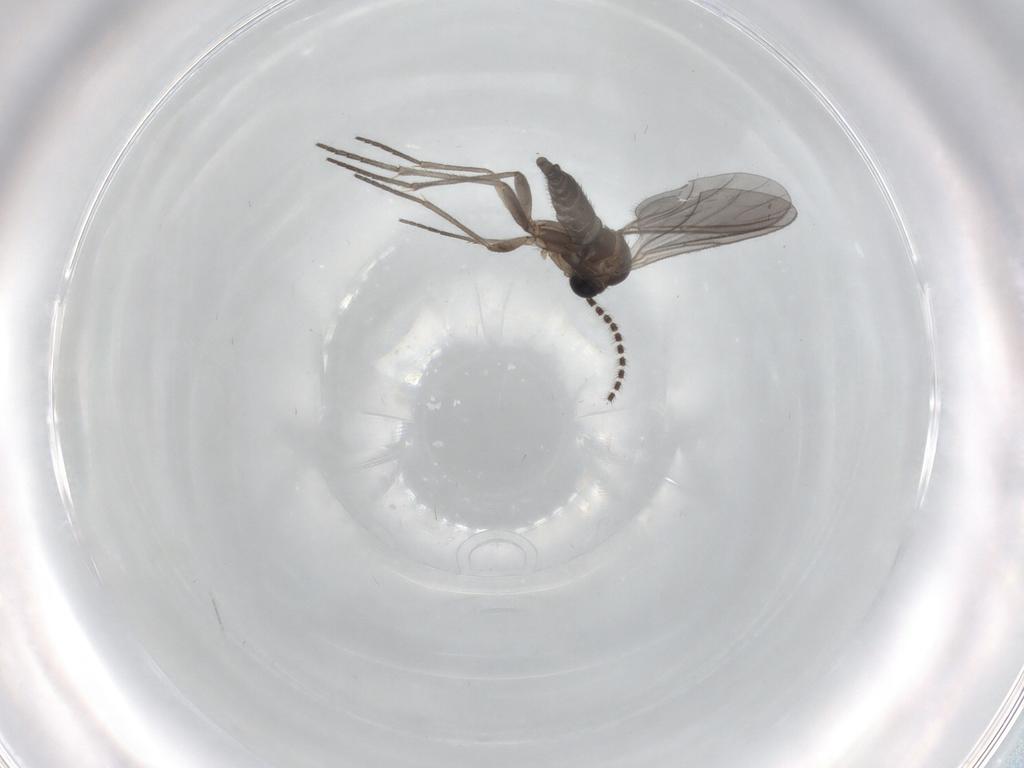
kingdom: Animalia
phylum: Arthropoda
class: Insecta
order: Diptera
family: Sciaridae
